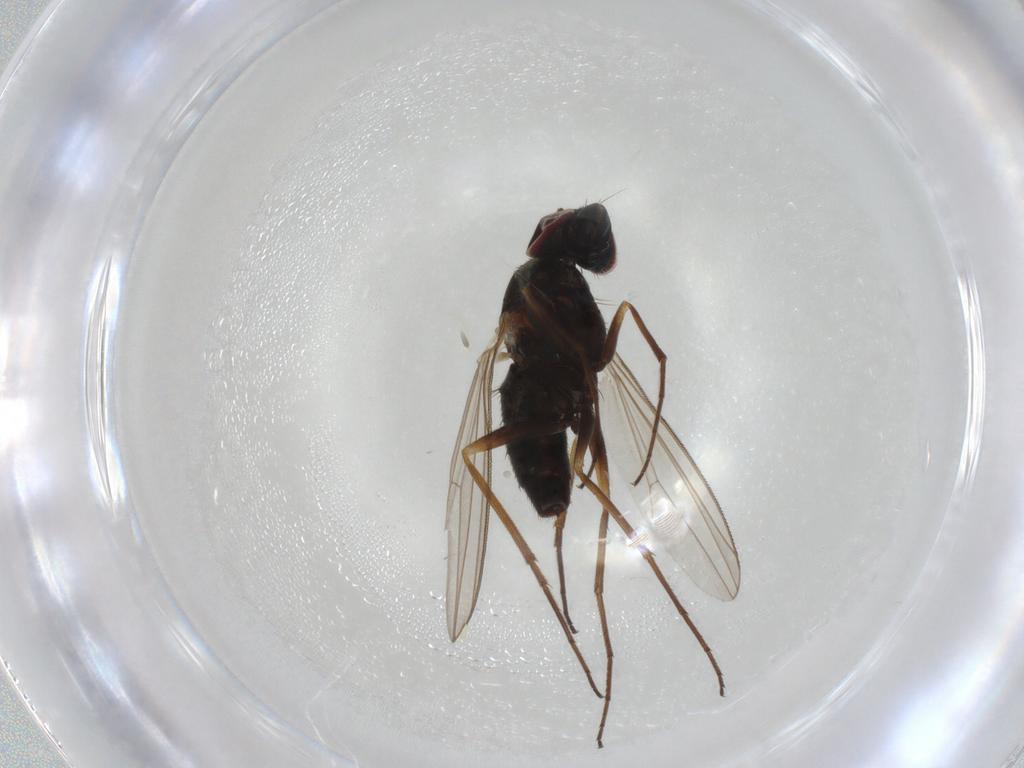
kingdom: Animalia
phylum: Arthropoda
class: Insecta
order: Diptera
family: Dolichopodidae
